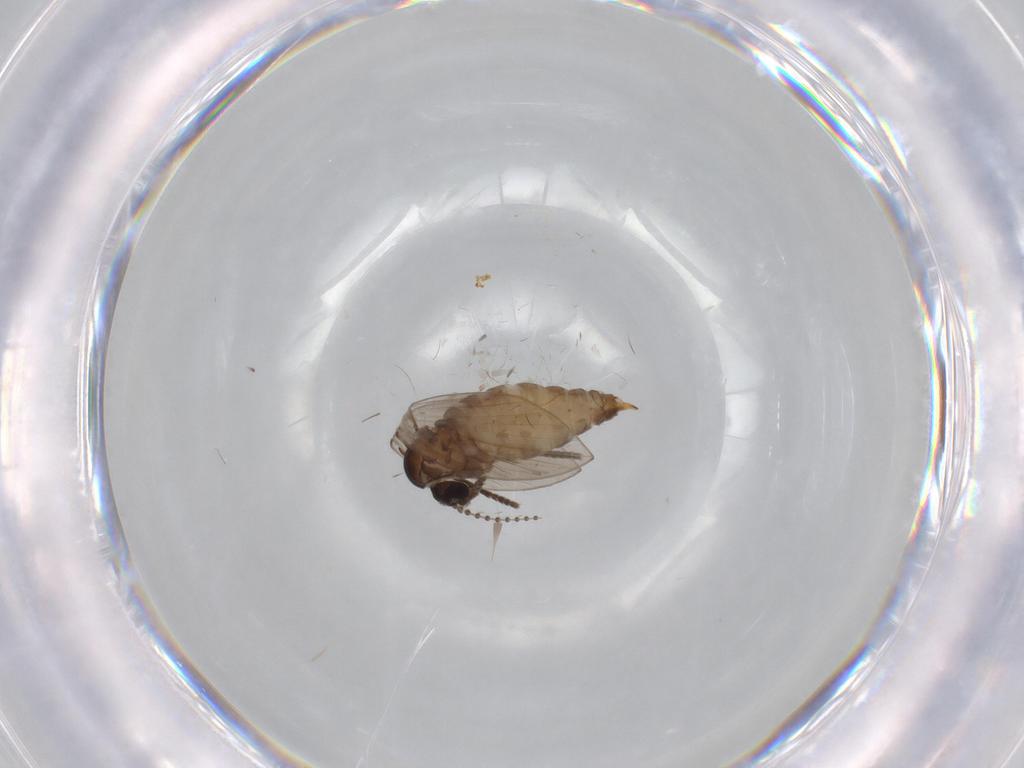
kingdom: Animalia
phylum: Arthropoda
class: Insecta
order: Diptera
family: Psychodidae
